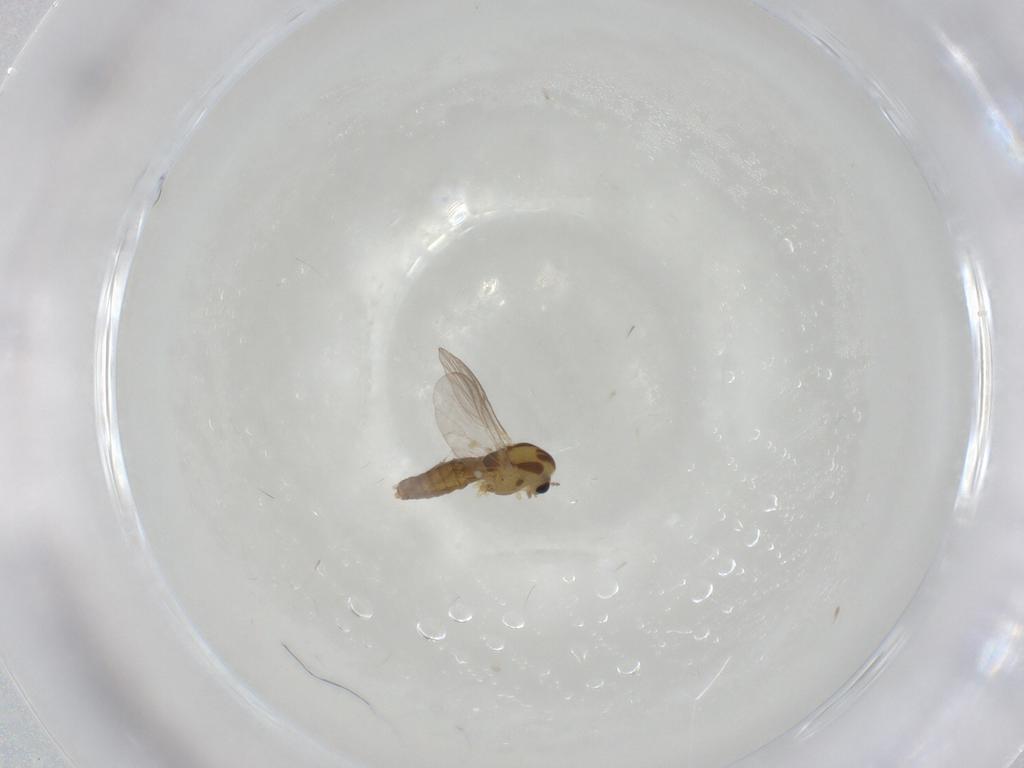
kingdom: Animalia
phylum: Arthropoda
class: Insecta
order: Diptera
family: Chironomidae
